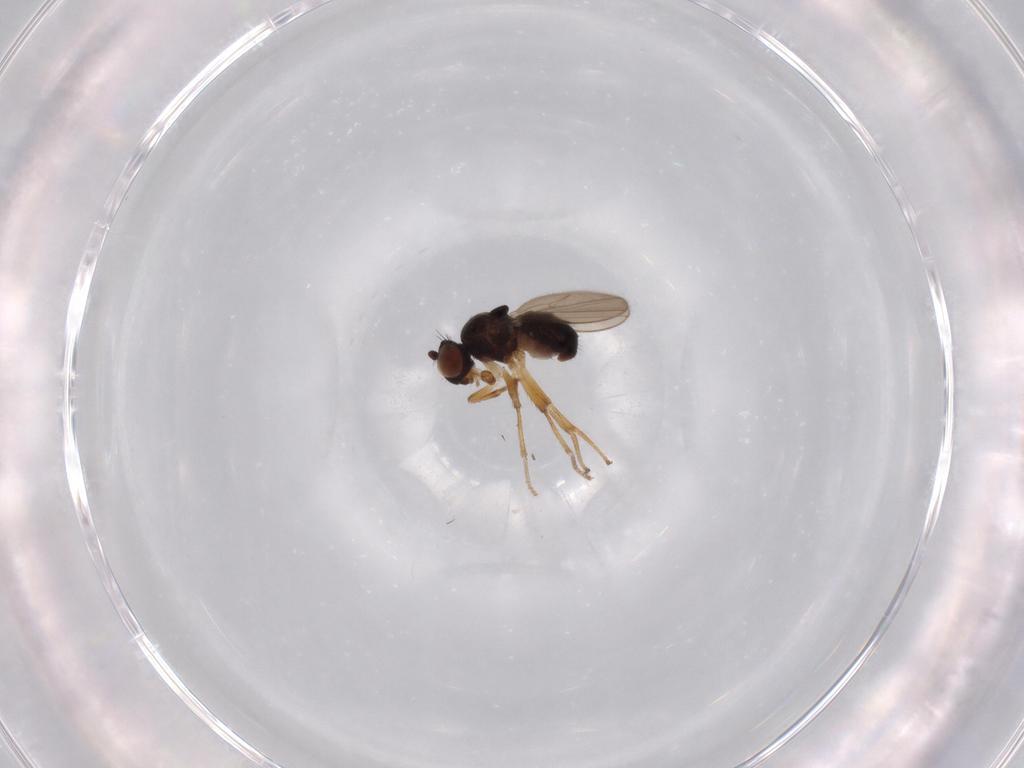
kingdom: Animalia
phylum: Arthropoda
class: Insecta
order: Diptera
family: Ephydridae
